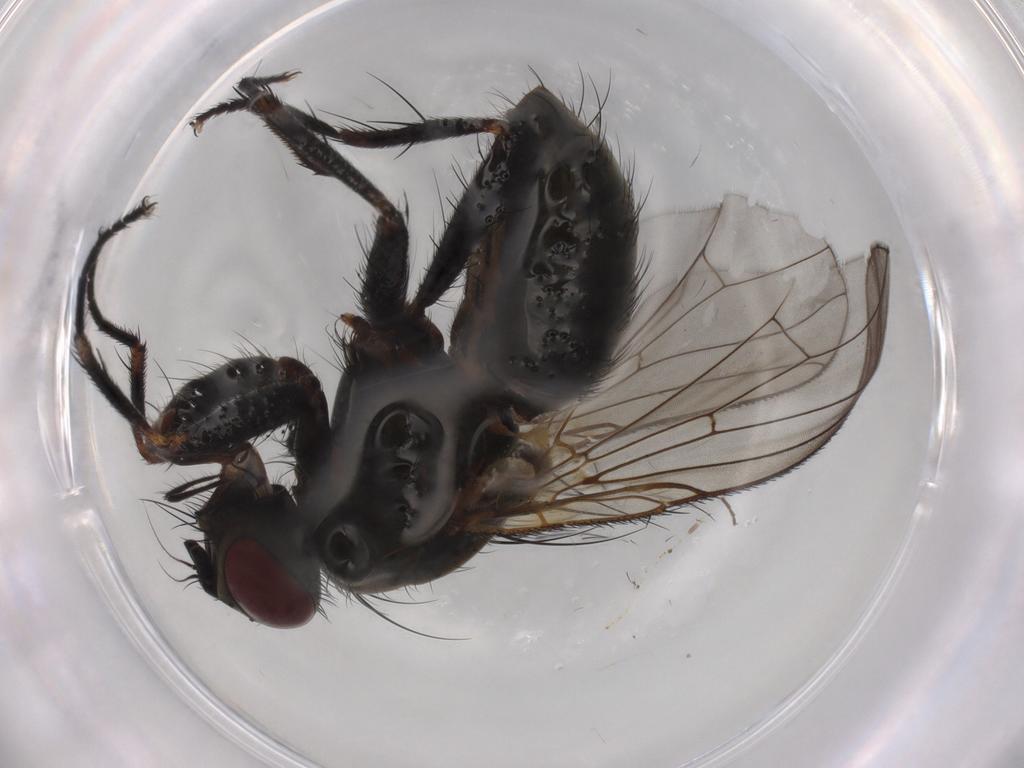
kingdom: Animalia
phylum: Arthropoda
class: Insecta
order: Diptera
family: Muscidae
